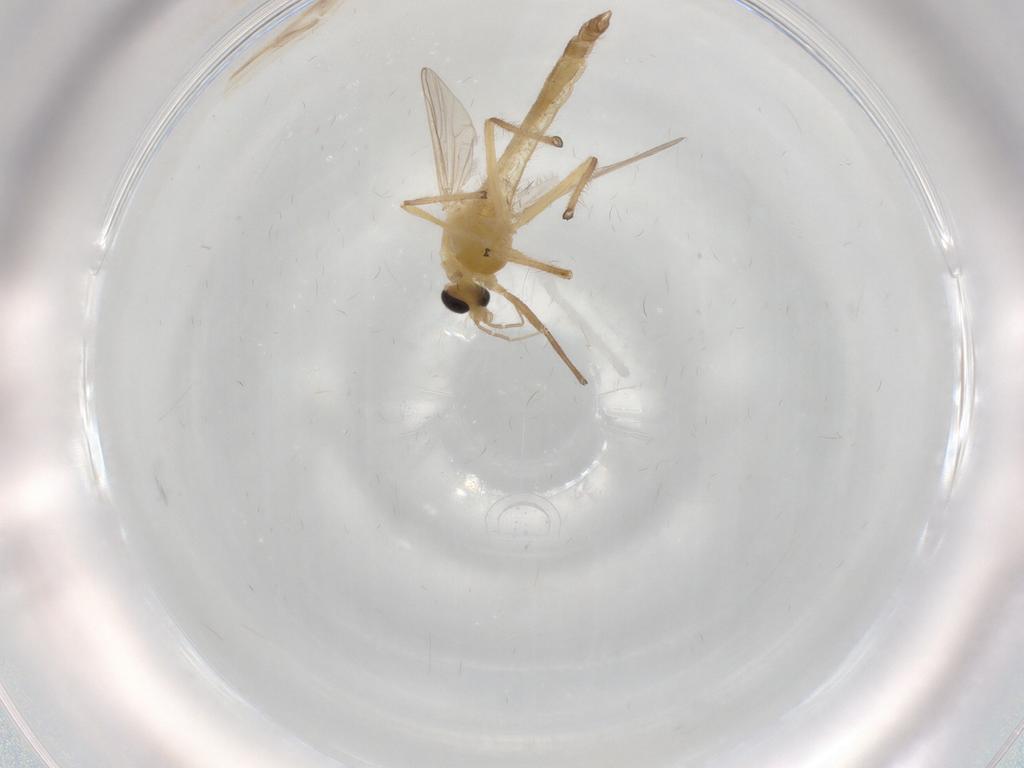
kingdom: Animalia
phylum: Arthropoda
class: Insecta
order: Diptera
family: Chironomidae
